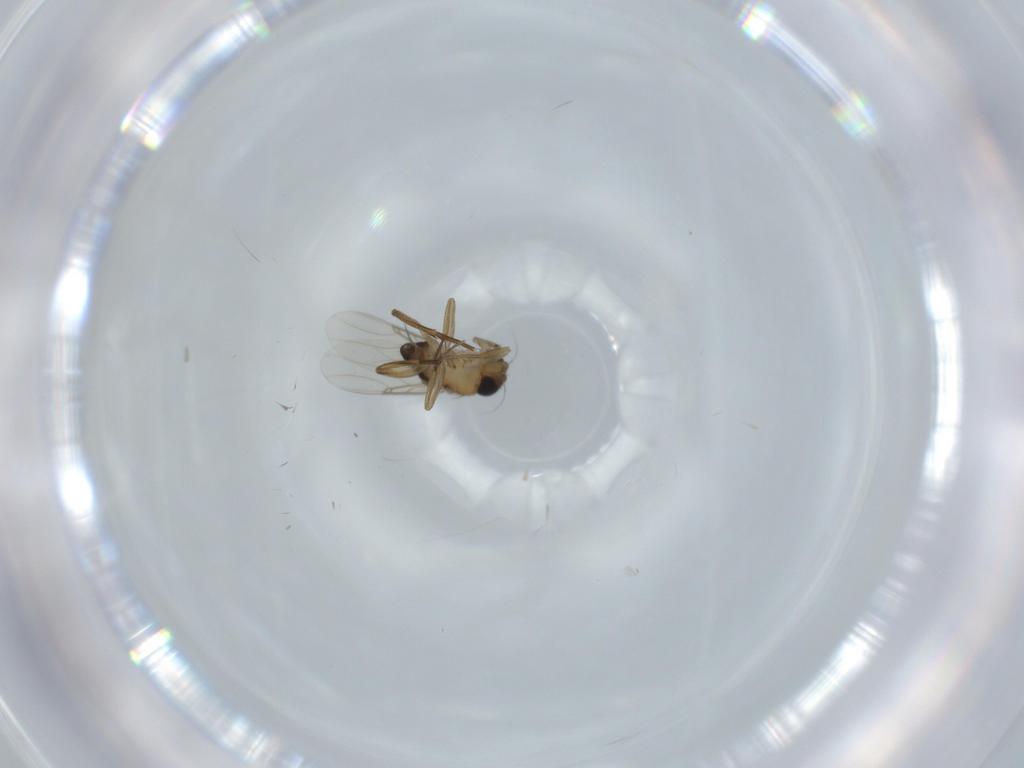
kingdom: Animalia
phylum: Arthropoda
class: Insecta
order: Diptera
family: Phoridae
